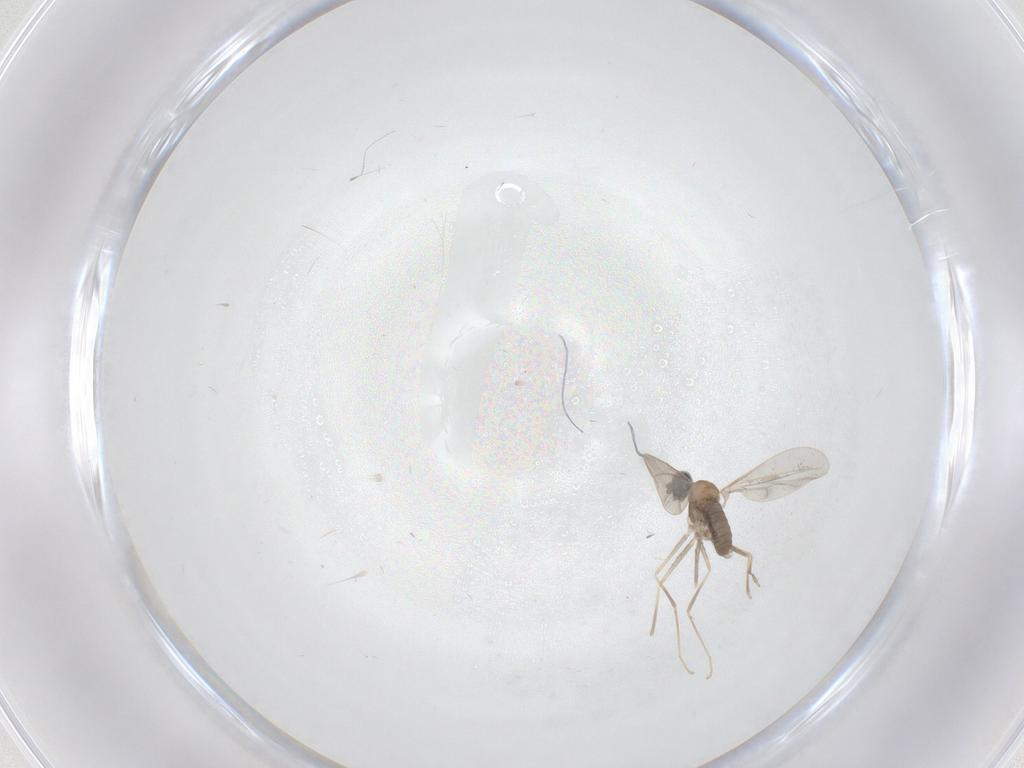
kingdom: Animalia
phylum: Arthropoda
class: Insecta
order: Diptera
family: Cecidomyiidae
